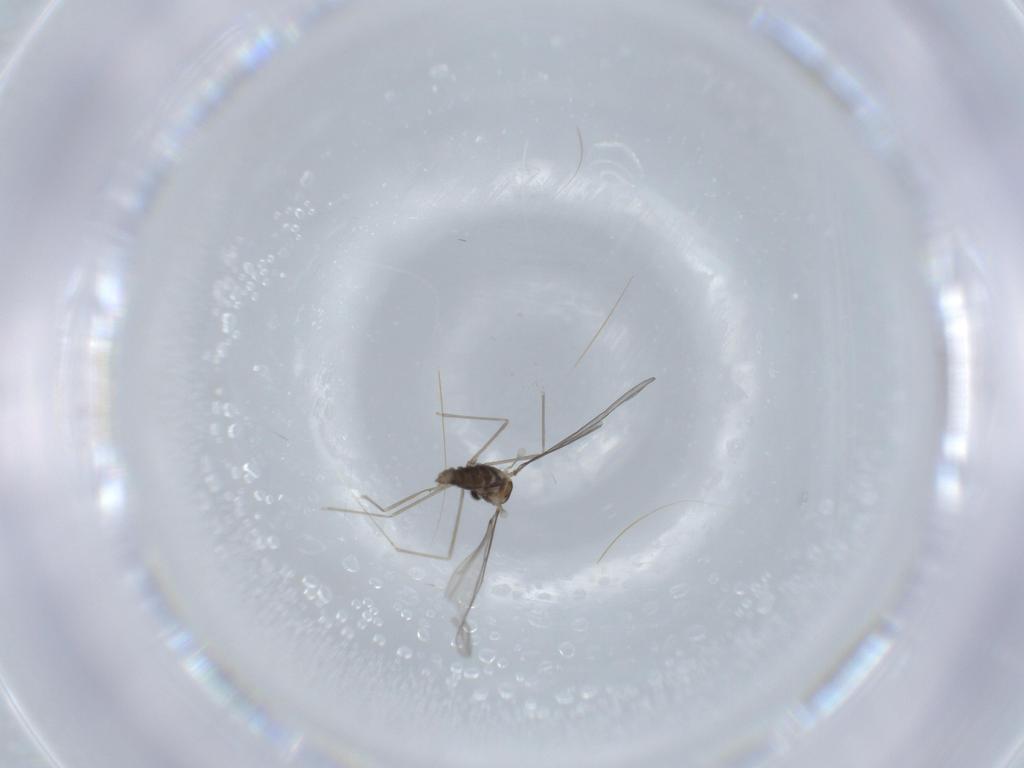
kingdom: Animalia
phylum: Arthropoda
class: Insecta
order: Diptera
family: Cecidomyiidae
